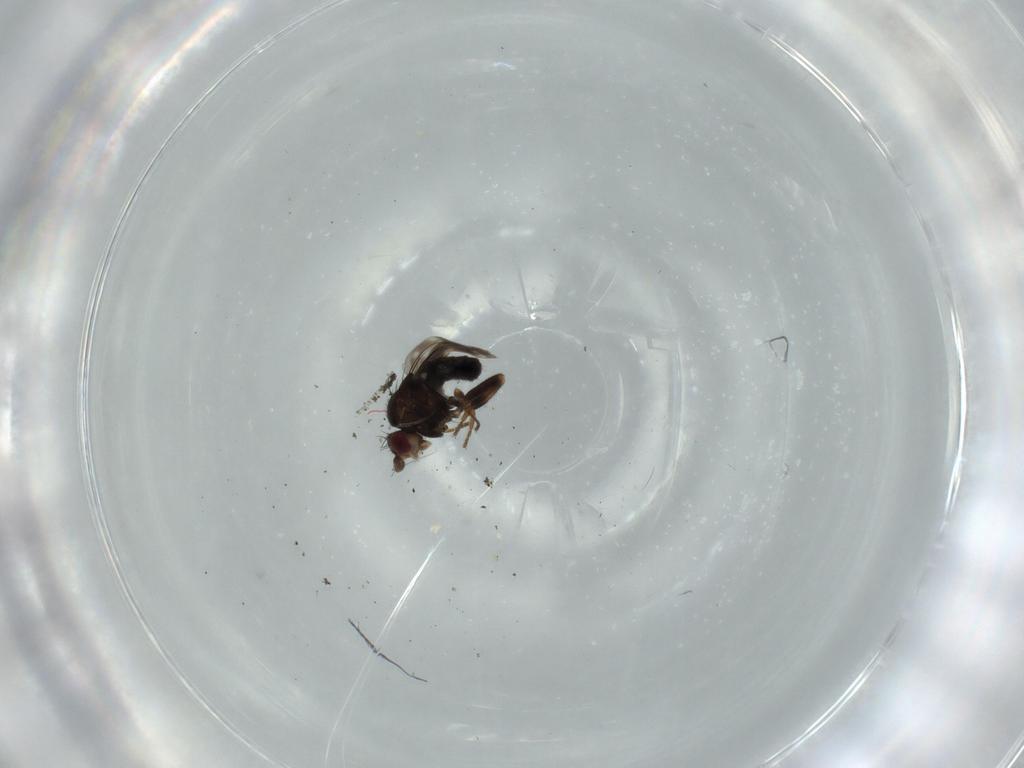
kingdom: Animalia
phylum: Arthropoda
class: Insecta
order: Diptera
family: Sphaeroceridae
